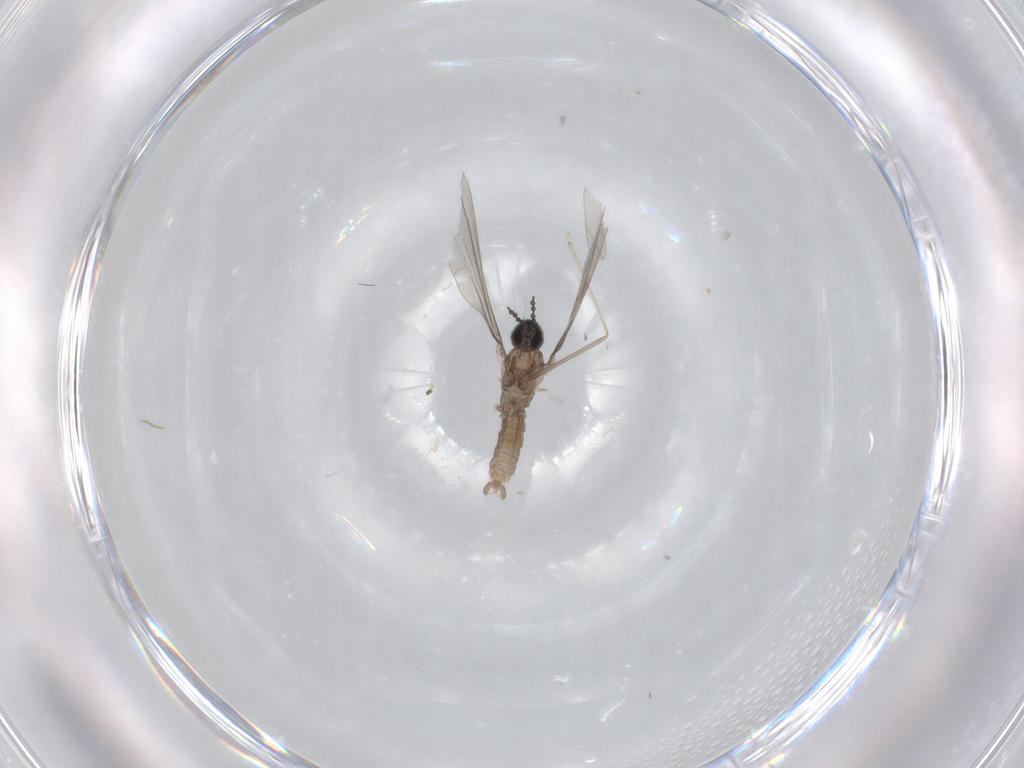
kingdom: Animalia
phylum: Arthropoda
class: Insecta
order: Diptera
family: Cecidomyiidae
